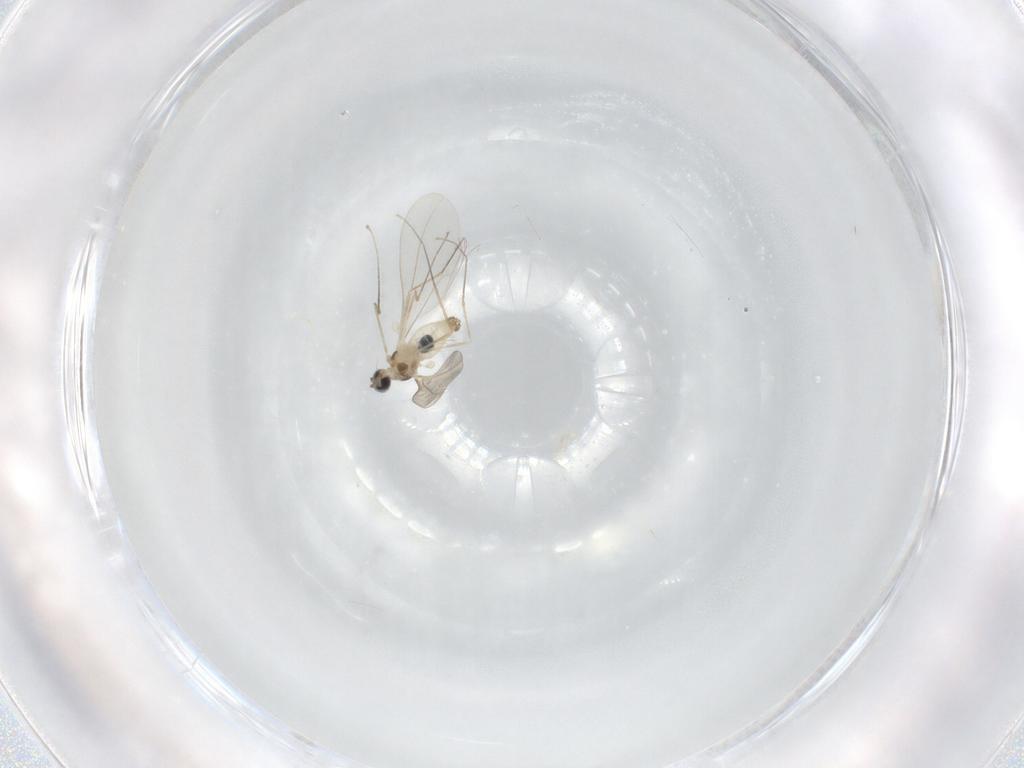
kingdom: Animalia
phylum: Arthropoda
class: Insecta
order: Diptera
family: Cecidomyiidae
